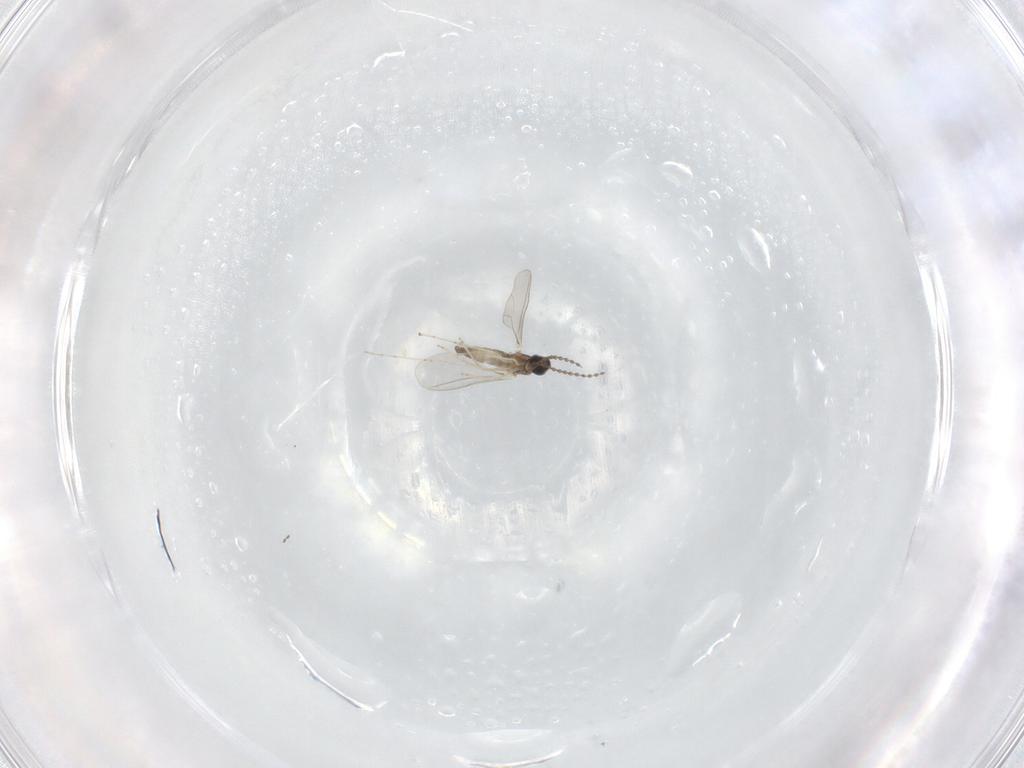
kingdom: Animalia
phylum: Arthropoda
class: Insecta
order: Diptera
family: Cecidomyiidae
